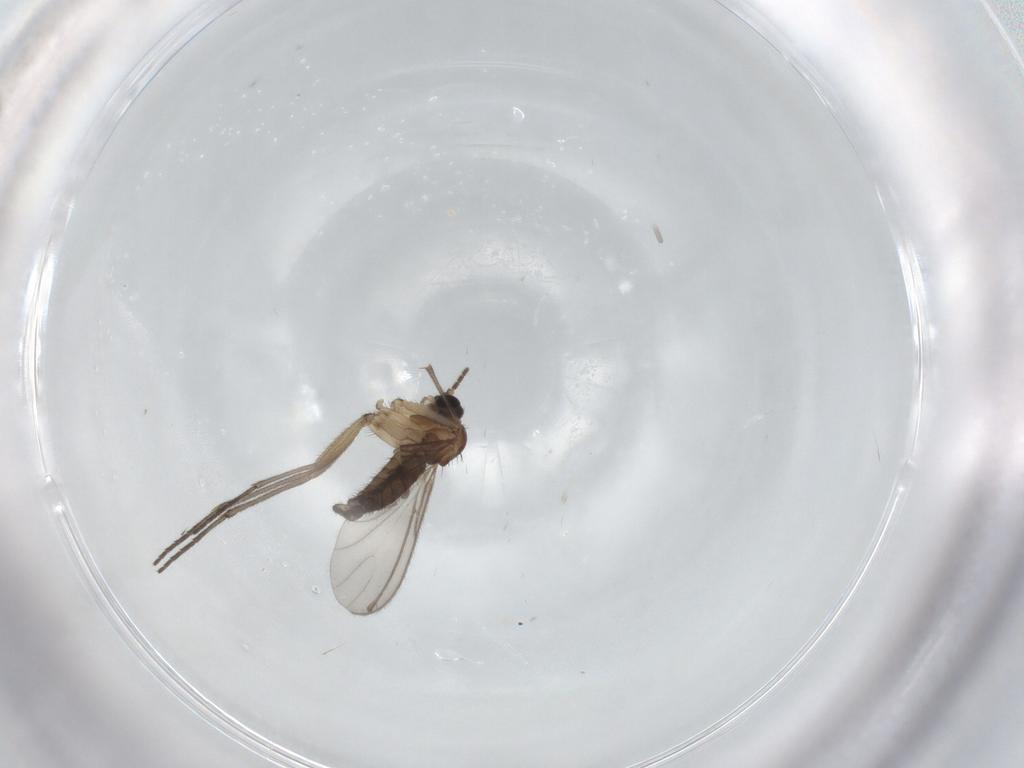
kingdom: Animalia
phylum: Arthropoda
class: Insecta
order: Diptera
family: Sciaridae
